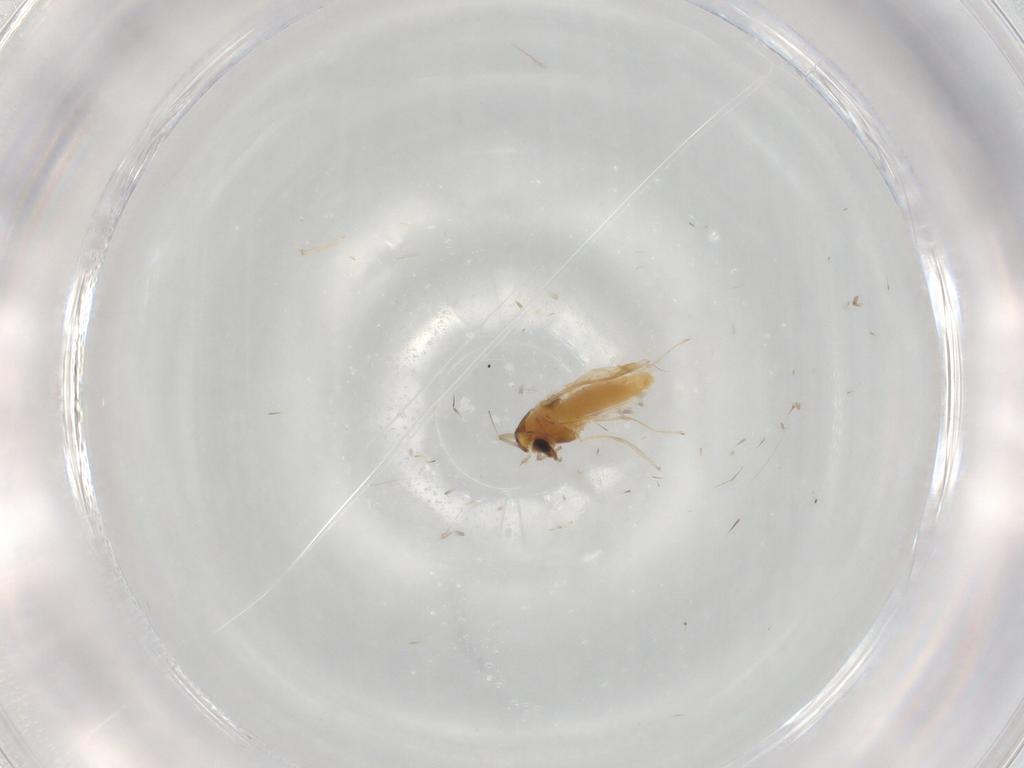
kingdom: Animalia
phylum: Arthropoda
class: Insecta
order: Diptera
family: Chironomidae
